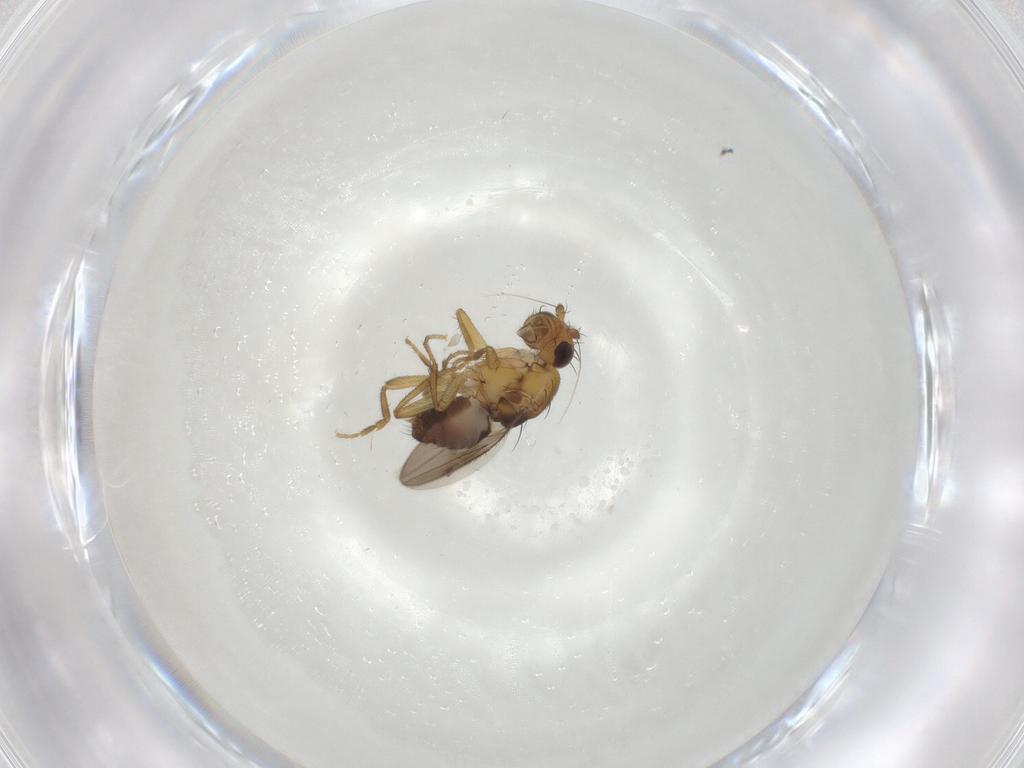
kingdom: Animalia
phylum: Arthropoda
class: Insecta
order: Diptera
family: Sphaeroceridae
